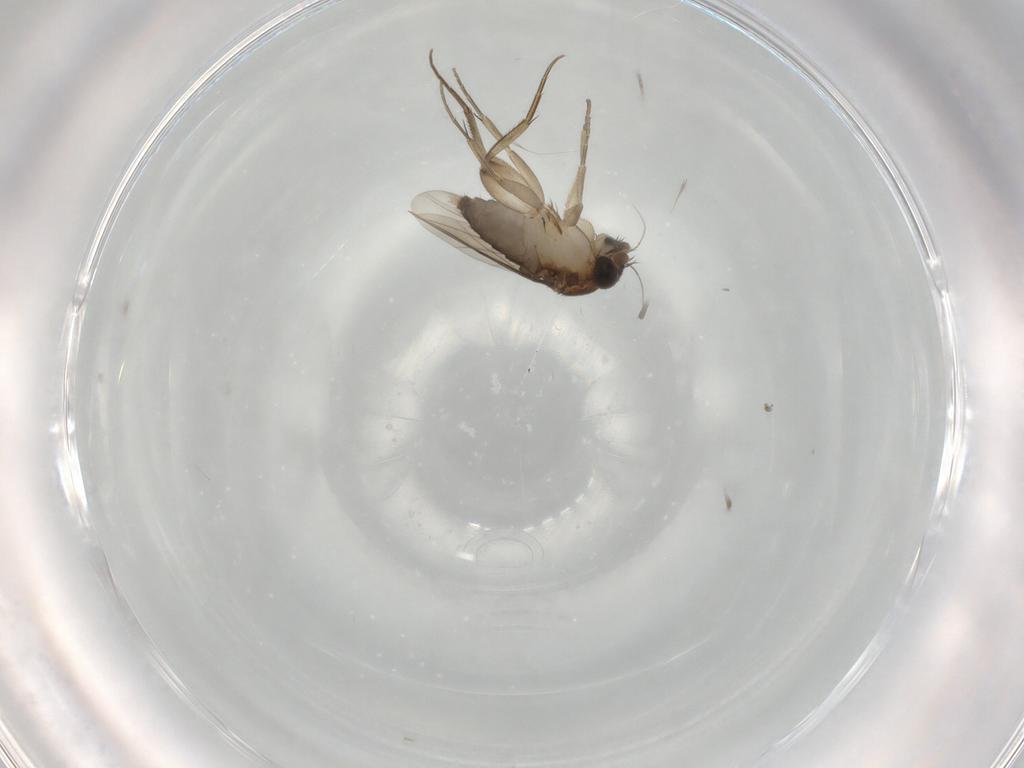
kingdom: Animalia
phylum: Arthropoda
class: Insecta
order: Diptera
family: Phoridae
